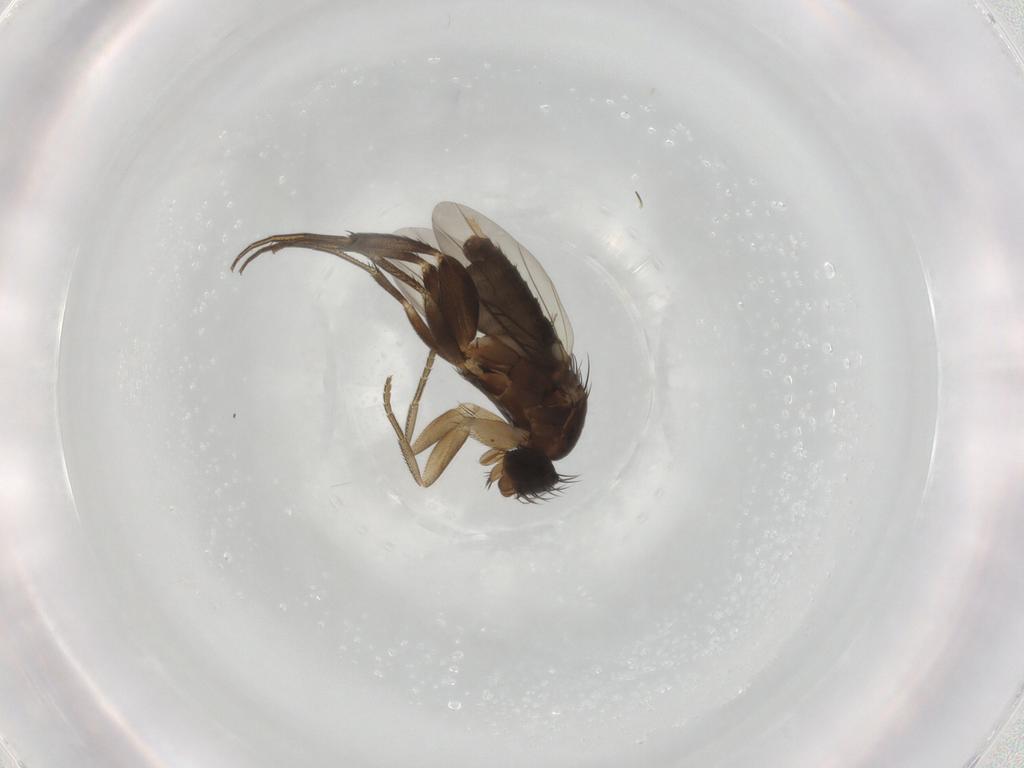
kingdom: Animalia
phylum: Arthropoda
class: Insecta
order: Diptera
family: Phoridae
